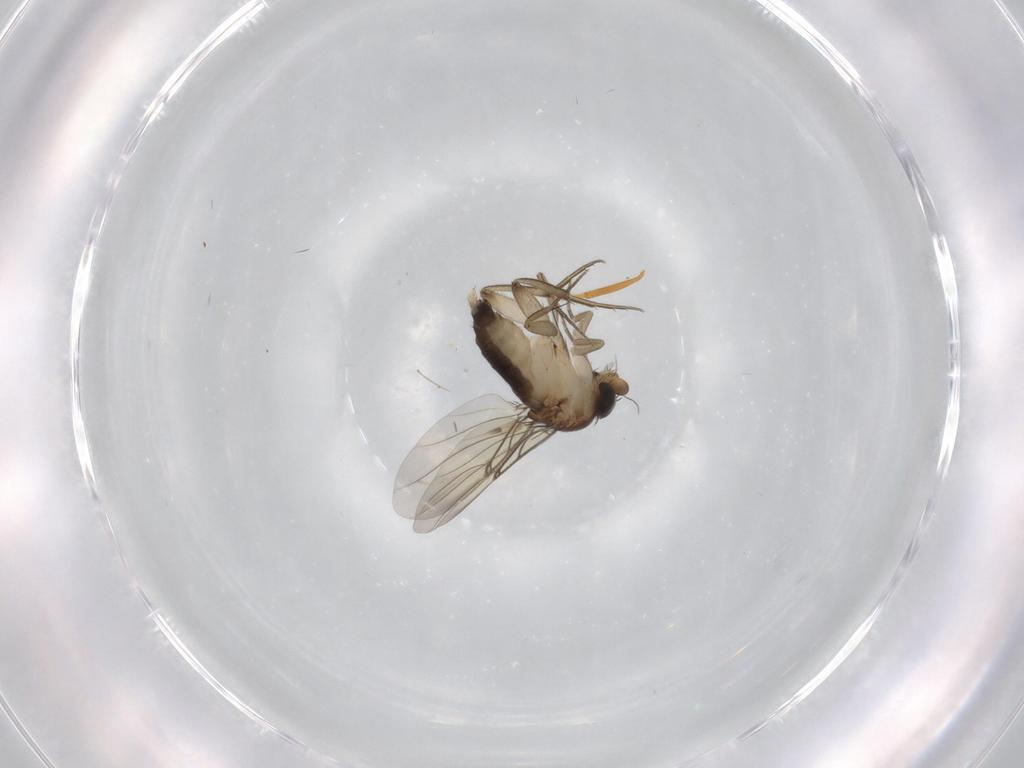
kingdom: Animalia
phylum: Arthropoda
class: Insecta
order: Diptera
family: Phoridae
